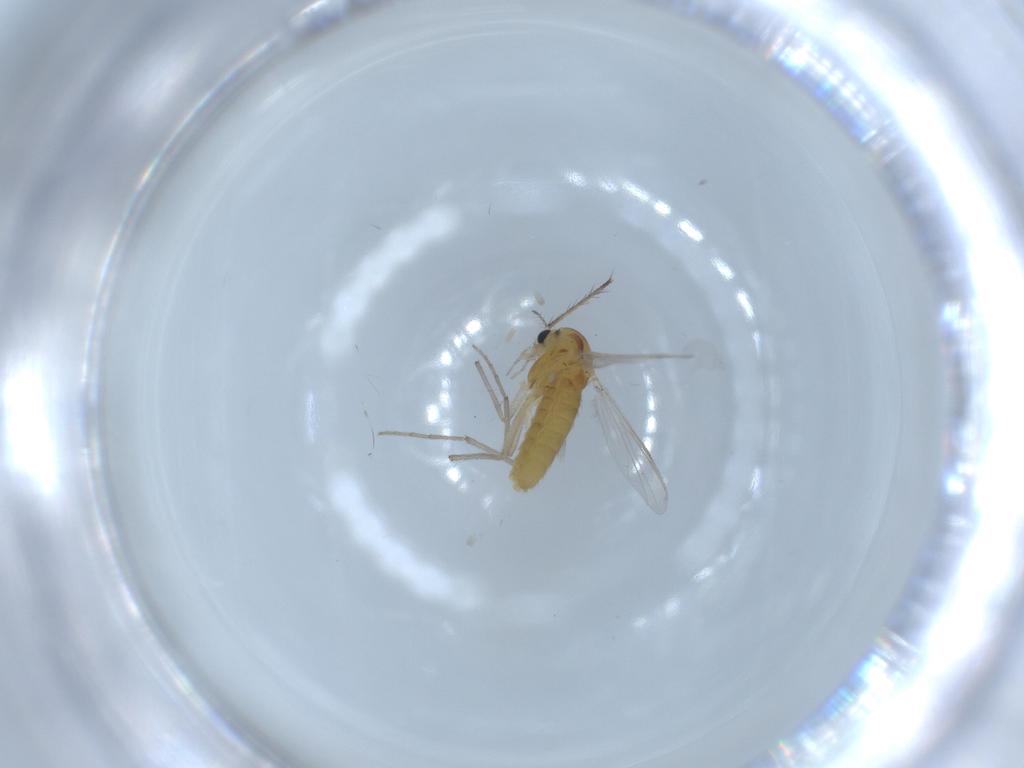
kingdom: Animalia
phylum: Arthropoda
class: Insecta
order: Diptera
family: Chironomidae
